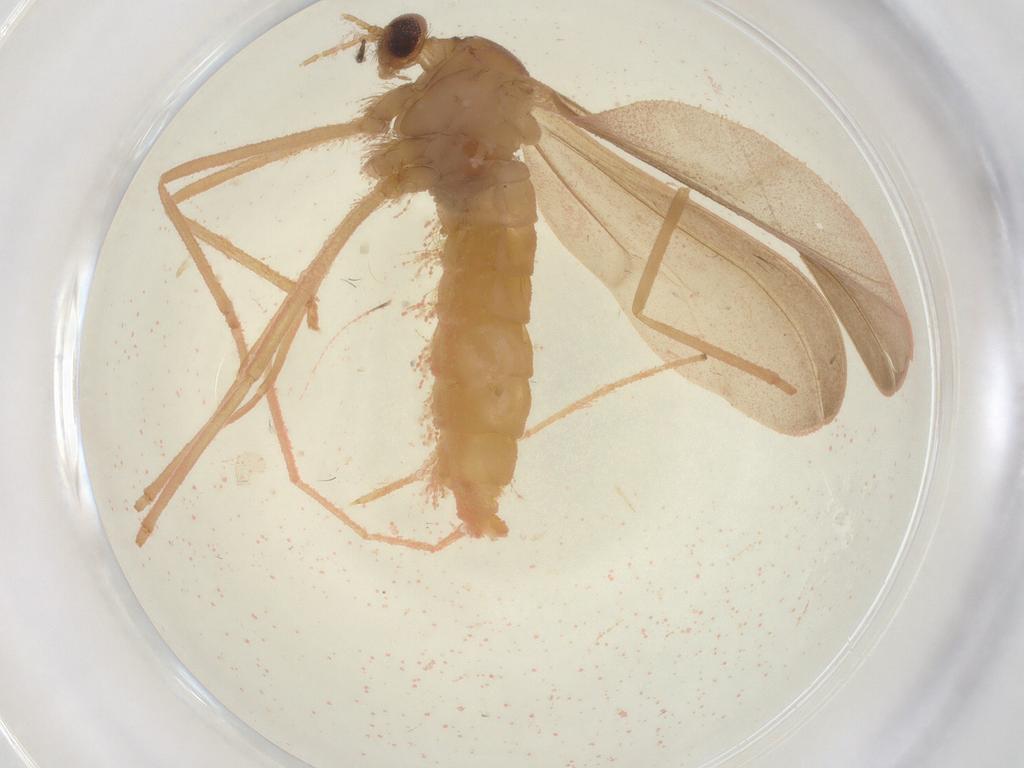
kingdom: Animalia
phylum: Arthropoda
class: Insecta
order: Diptera
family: Cecidomyiidae
